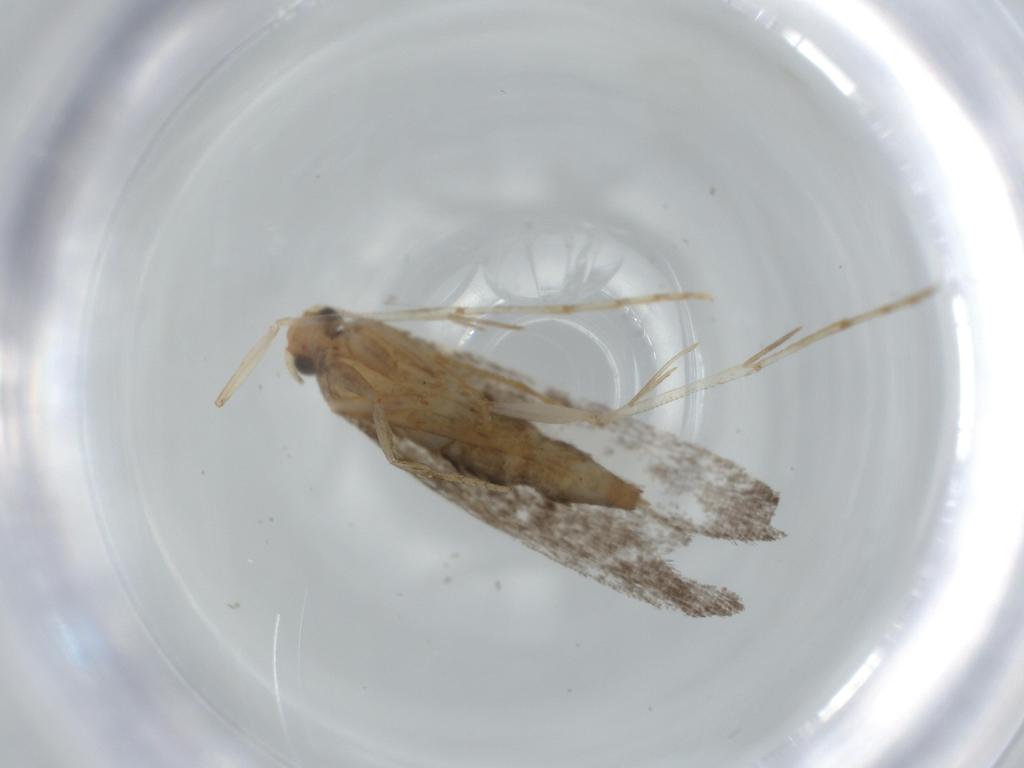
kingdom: Animalia
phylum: Arthropoda
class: Insecta
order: Lepidoptera
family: Tineidae
